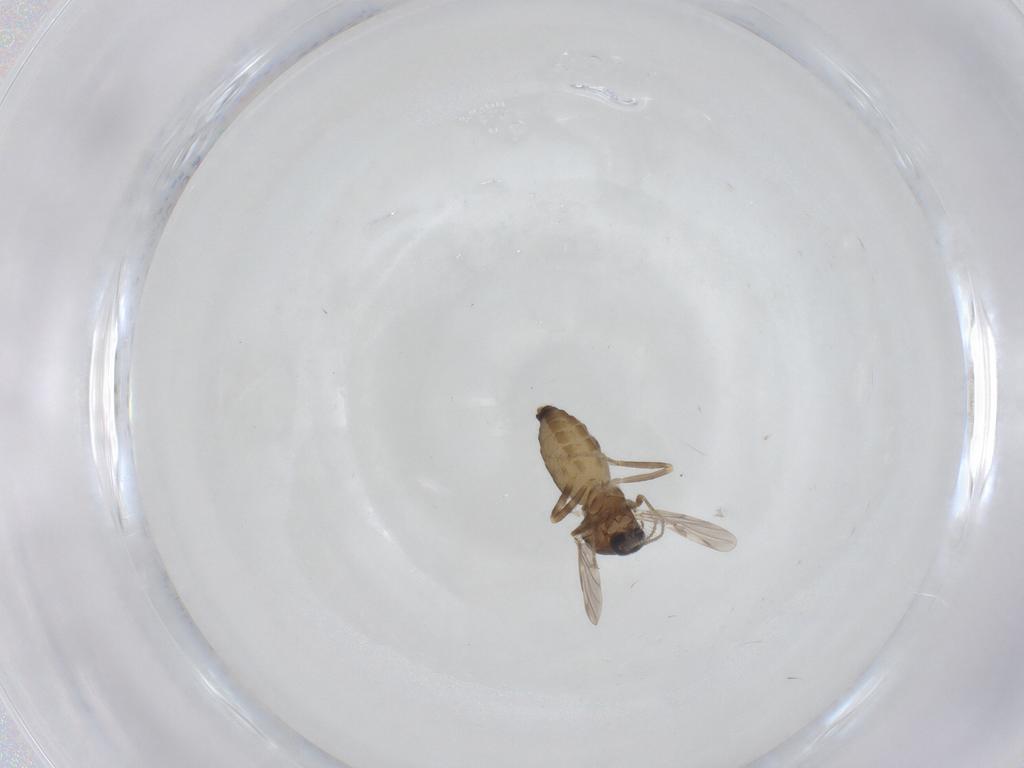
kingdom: Animalia
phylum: Arthropoda
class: Insecta
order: Diptera
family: Ceratopogonidae
